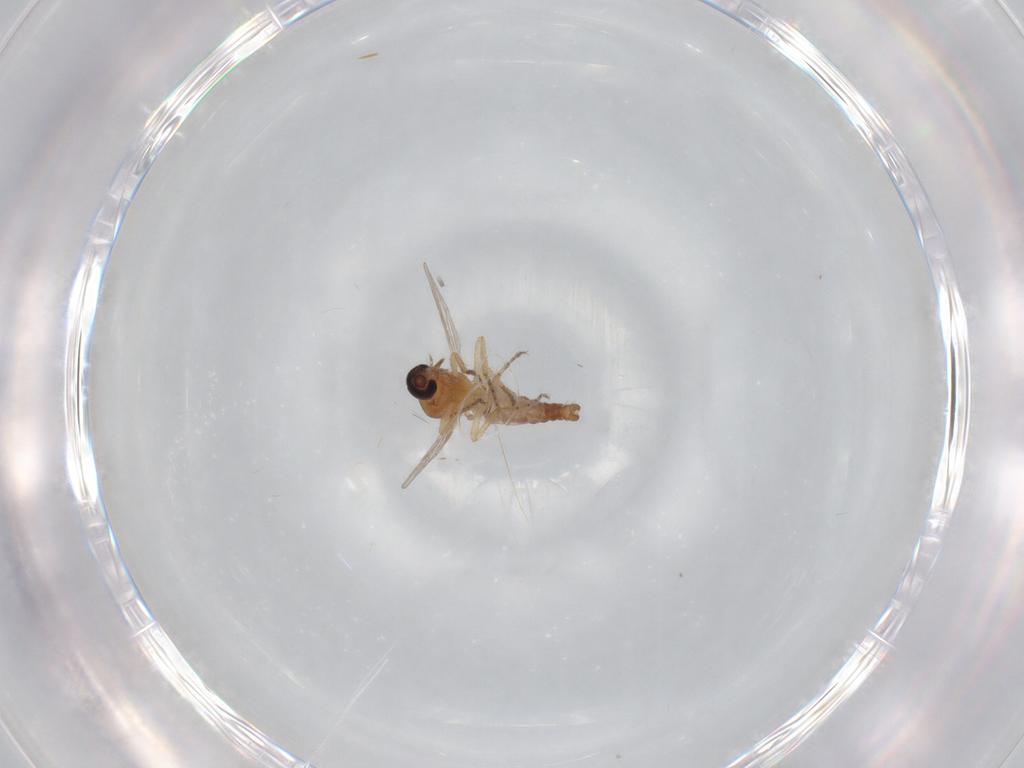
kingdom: Animalia
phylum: Arthropoda
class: Insecta
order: Diptera
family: Ceratopogonidae
